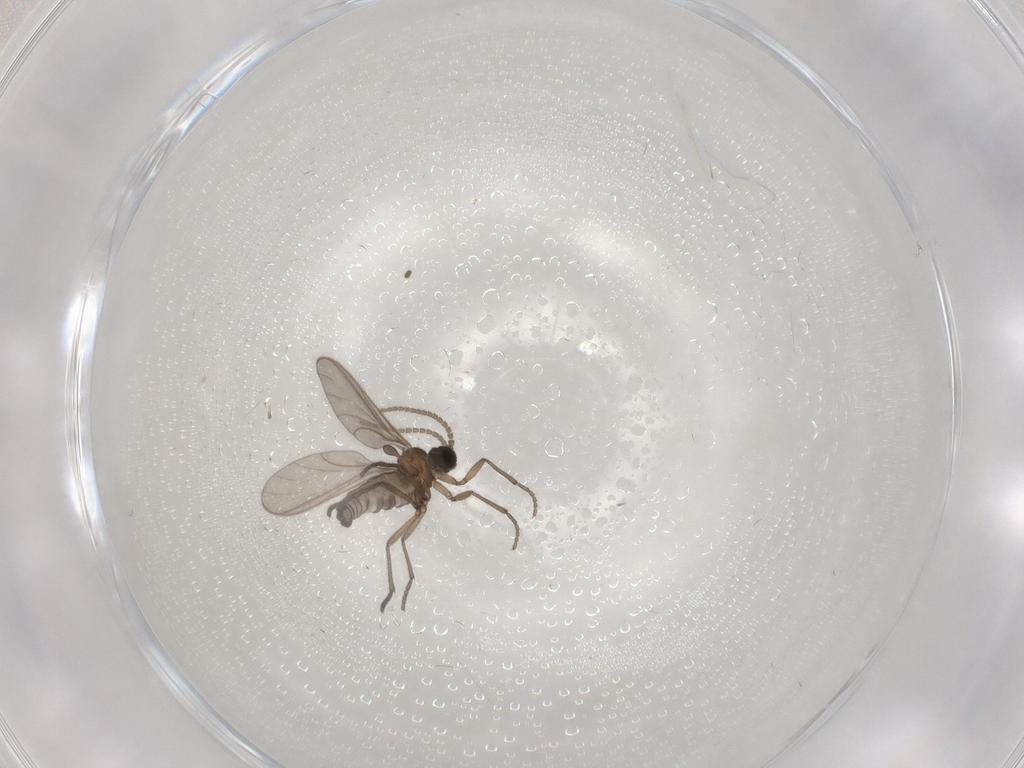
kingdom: Animalia
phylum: Arthropoda
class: Insecta
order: Diptera
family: Sciaridae
